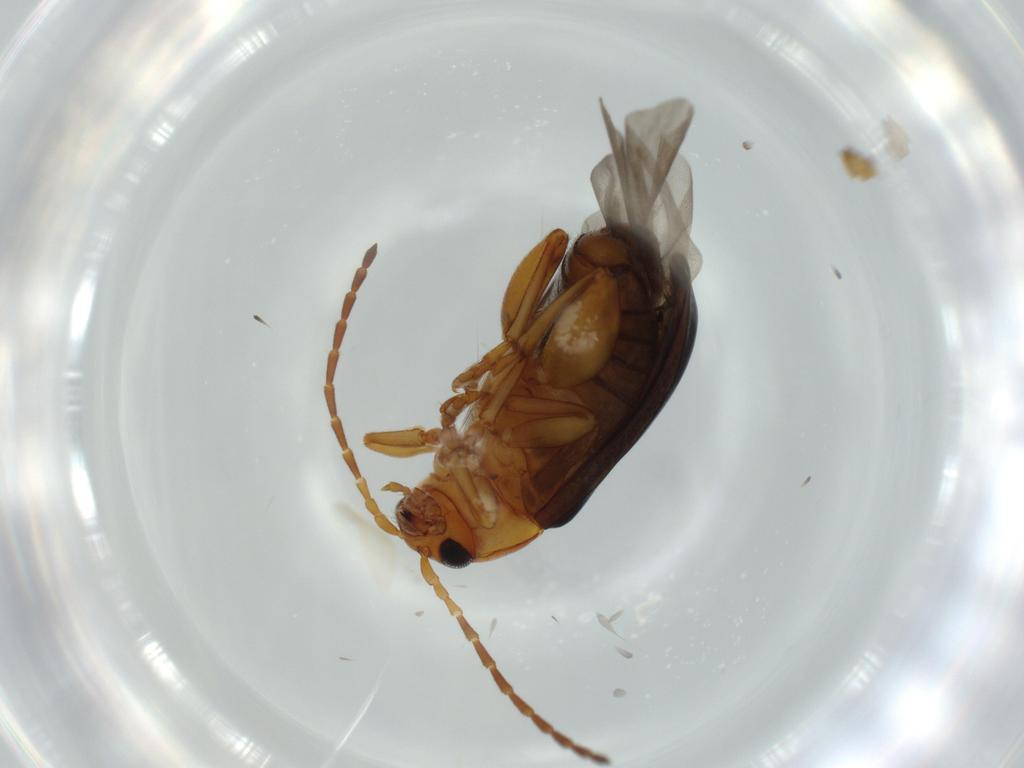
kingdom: Animalia
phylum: Arthropoda
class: Insecta
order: Coleoptera
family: Chrysomelidae
